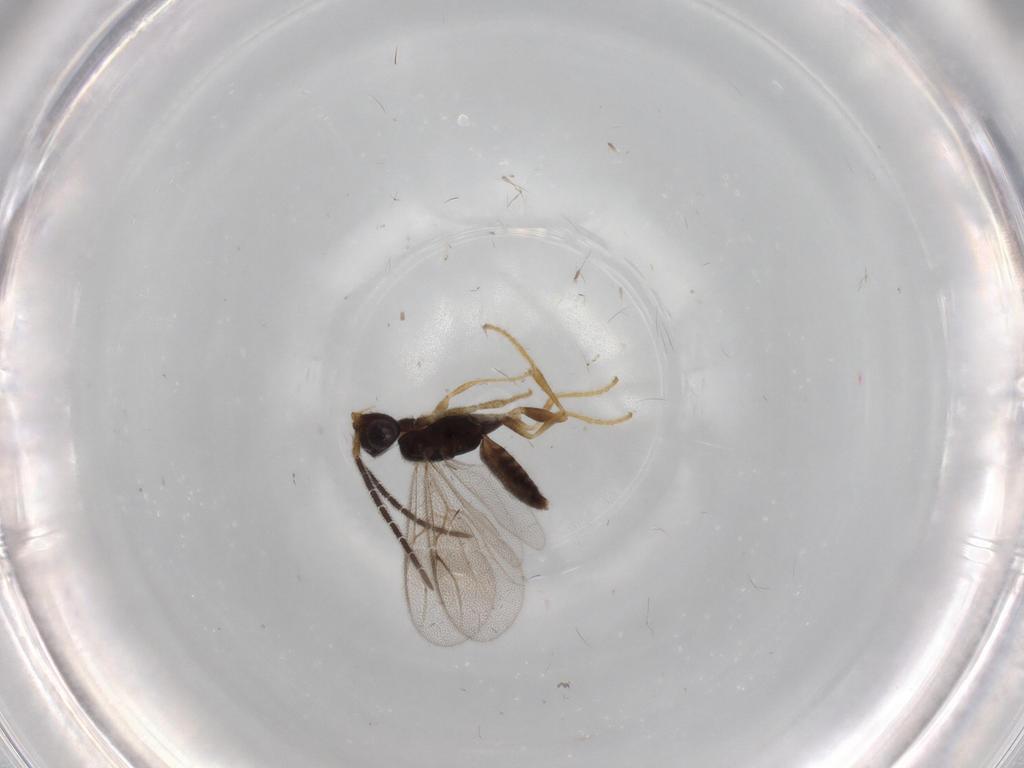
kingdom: Animalia
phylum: Arthropoda
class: Insecta
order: Hymenoptera
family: Dryinidae
